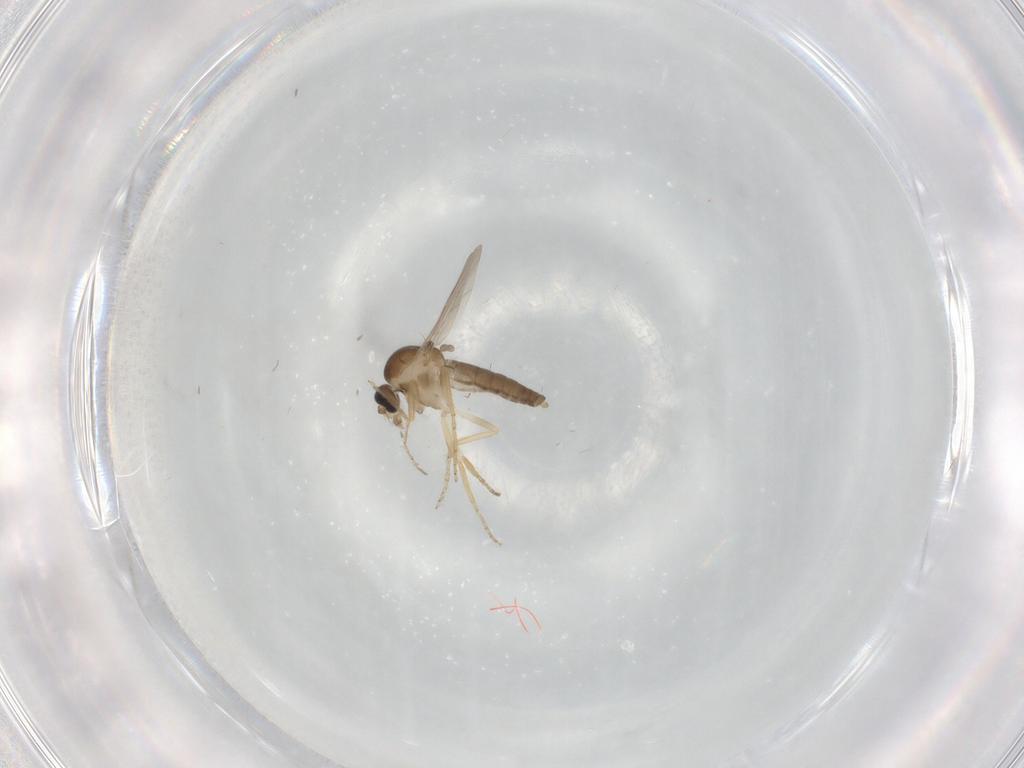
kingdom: Animalia
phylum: Arthropoda
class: Insecta
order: Diptera
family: Ceratopogonidae
